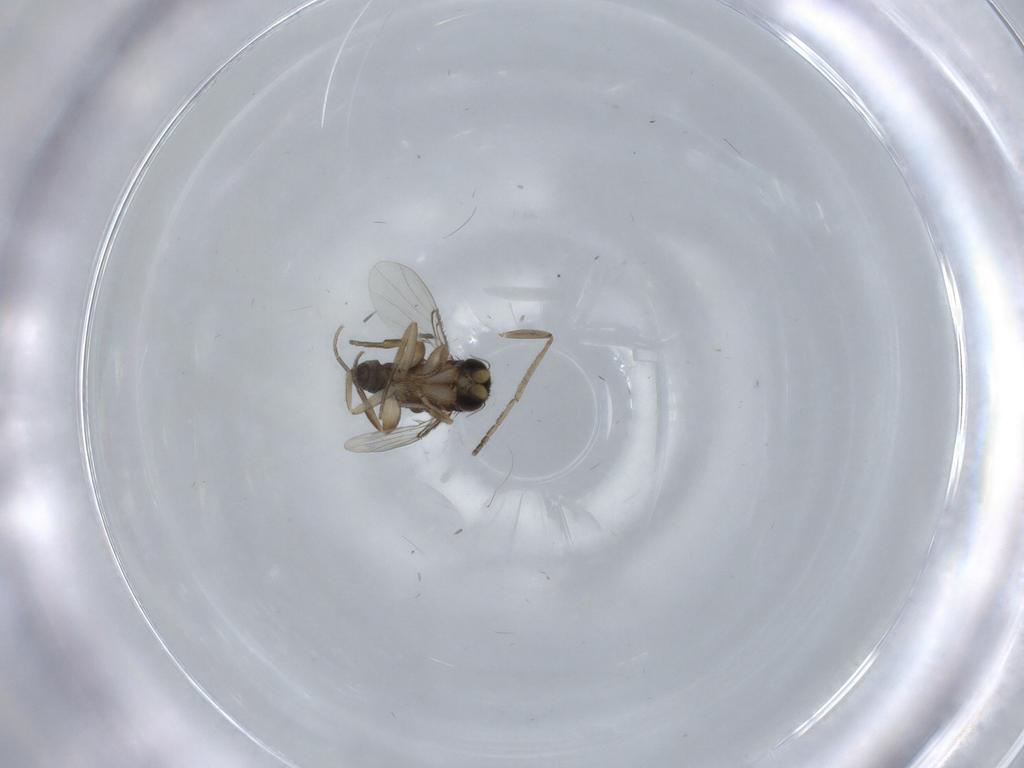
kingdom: Animalia
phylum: Arthropoda
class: Insecta
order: Diptera
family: Phoridae
